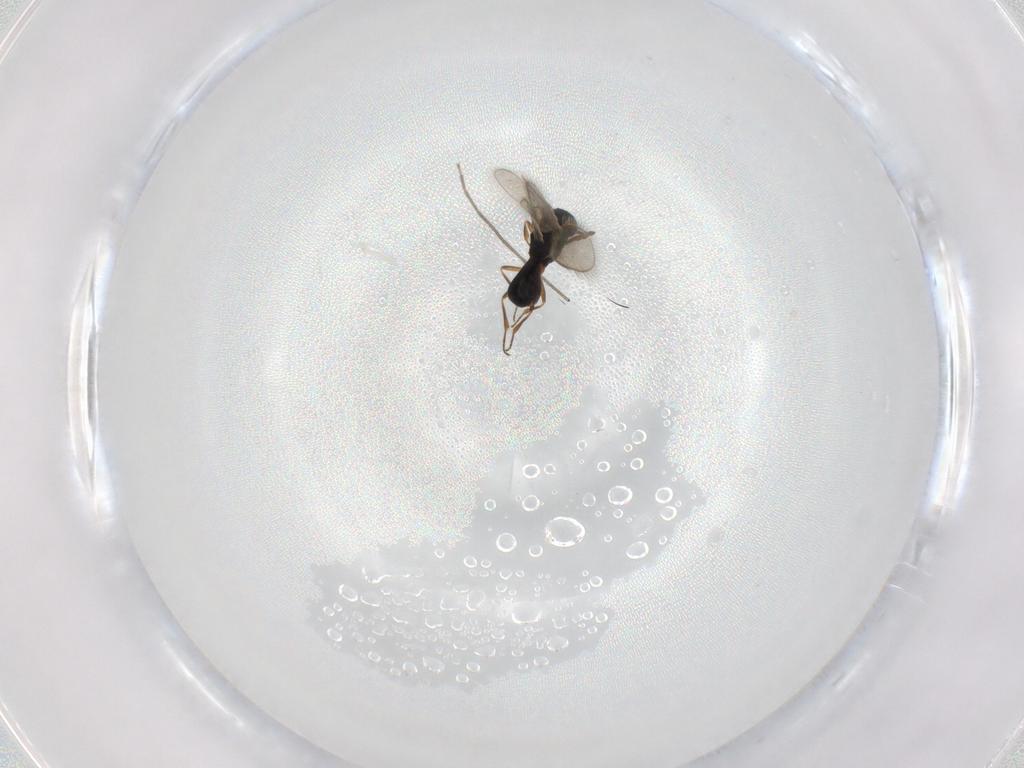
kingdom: Animalia
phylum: Arthropoda
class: Insecta
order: Hymenoptera
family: Scelionidae
